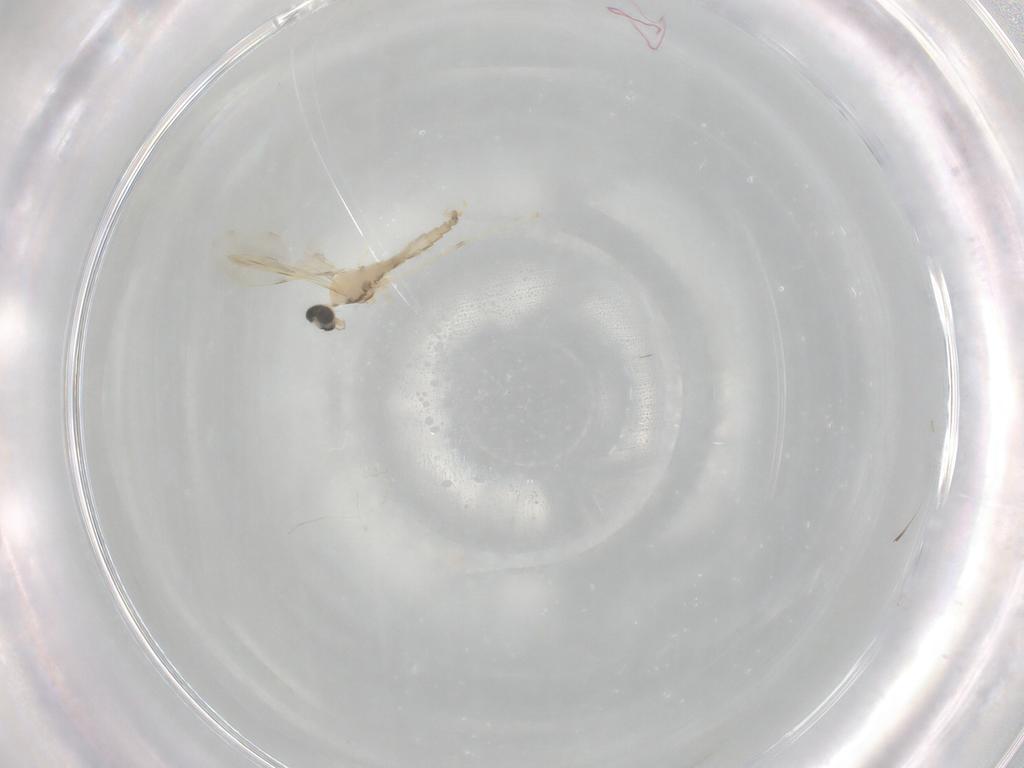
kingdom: Animalia
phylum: Arthropoda
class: Insecta
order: Diptera
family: Cecidomyiidae
